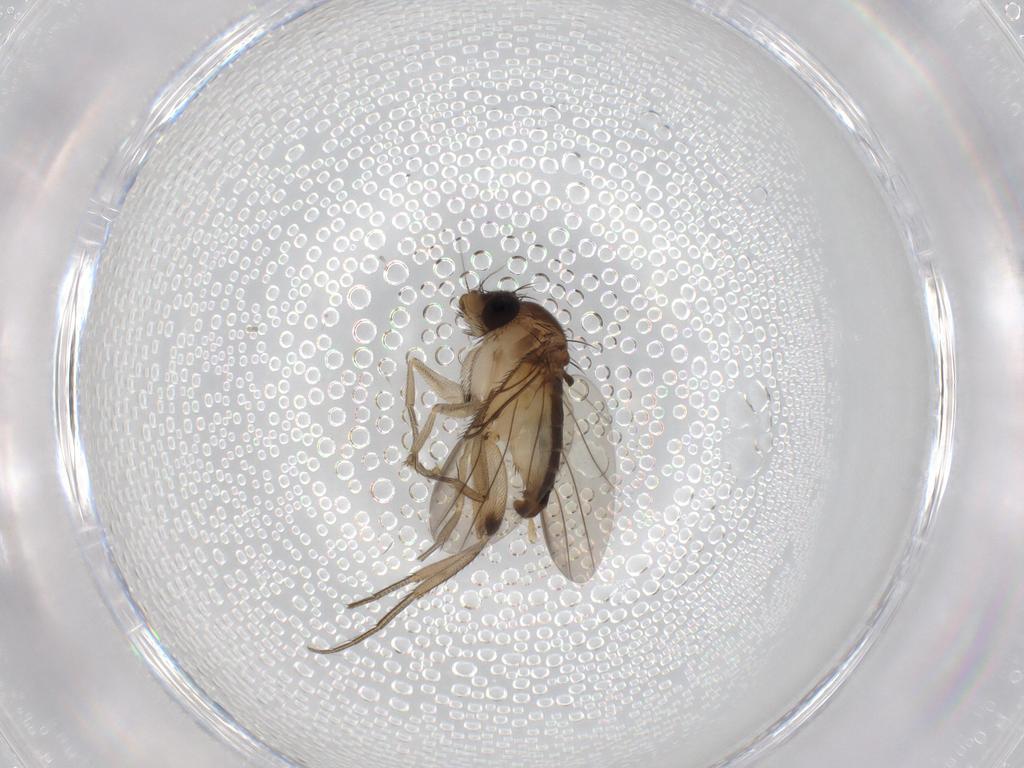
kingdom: Animalia
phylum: Arthropoda
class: Insecta
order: Diptera
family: Phoridae
